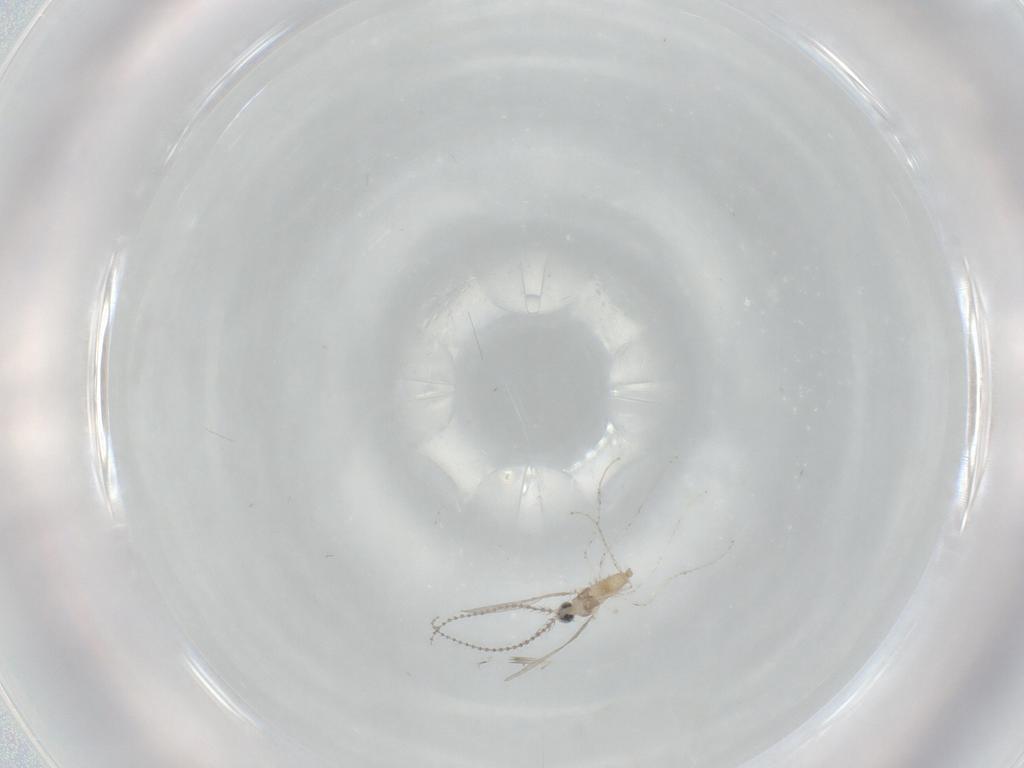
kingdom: Animalia
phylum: Arthropoda
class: Insecta
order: Diptera
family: Cecidomyiidae
